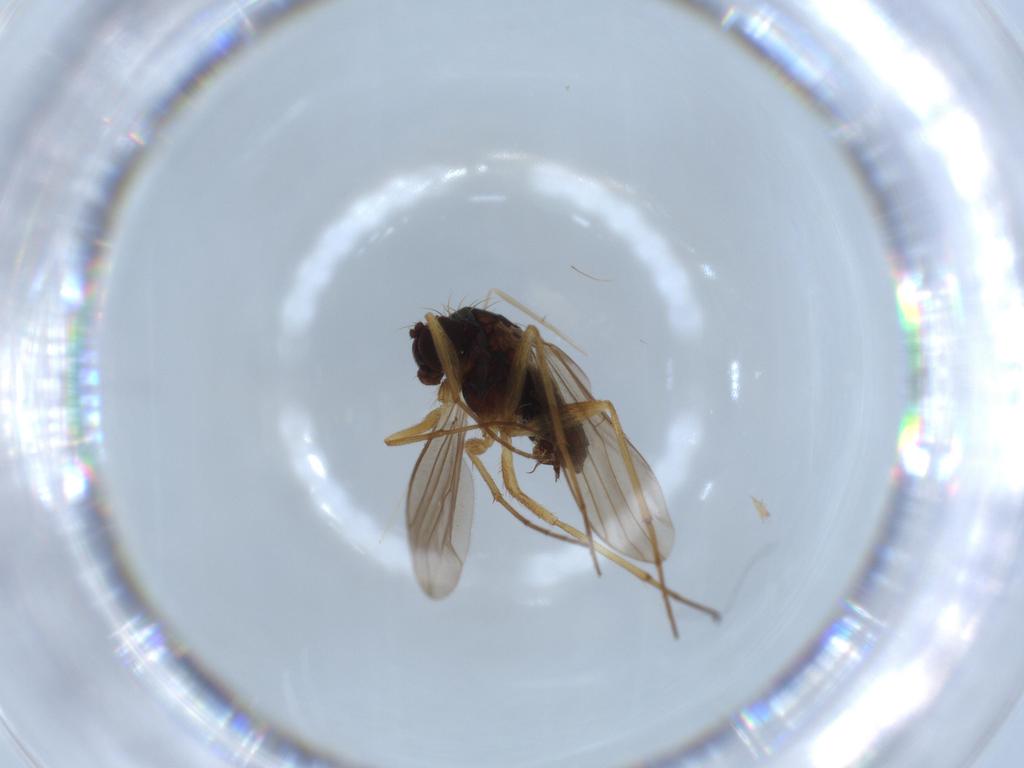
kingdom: Animalia
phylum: Arthropoda
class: Insecta
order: Diptera
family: Dolichopodidae
